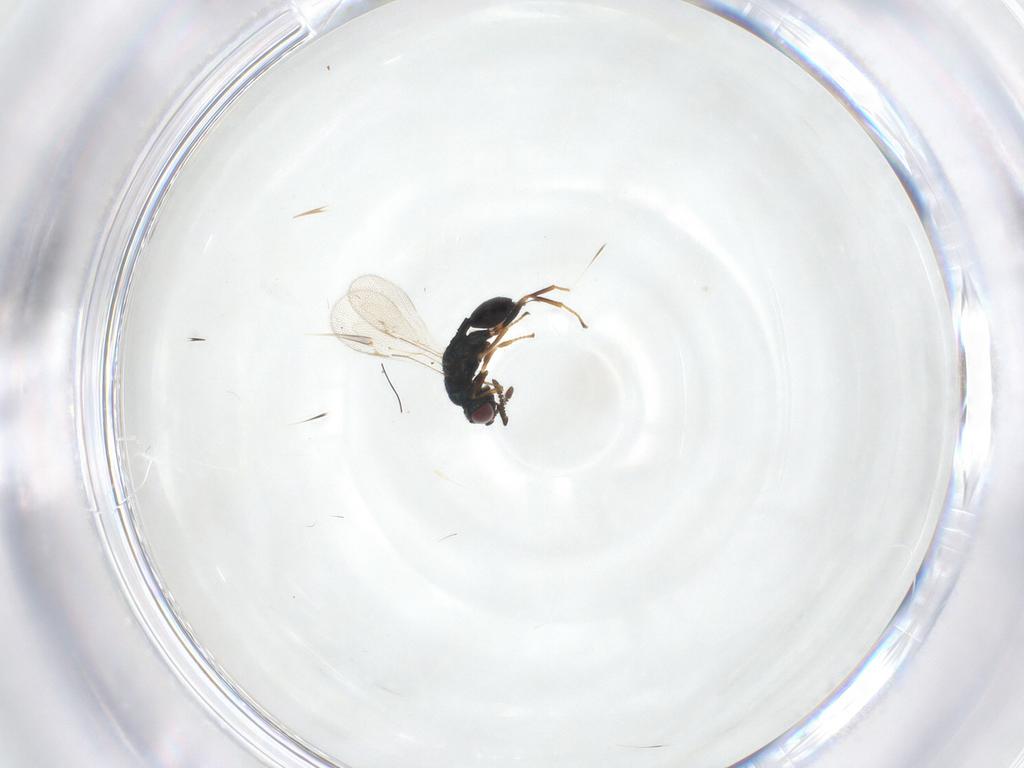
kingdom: Animalia
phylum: Arthropoda
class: Insecta
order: Hymenoptera
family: Chalcidoidea_incertae_sedis
